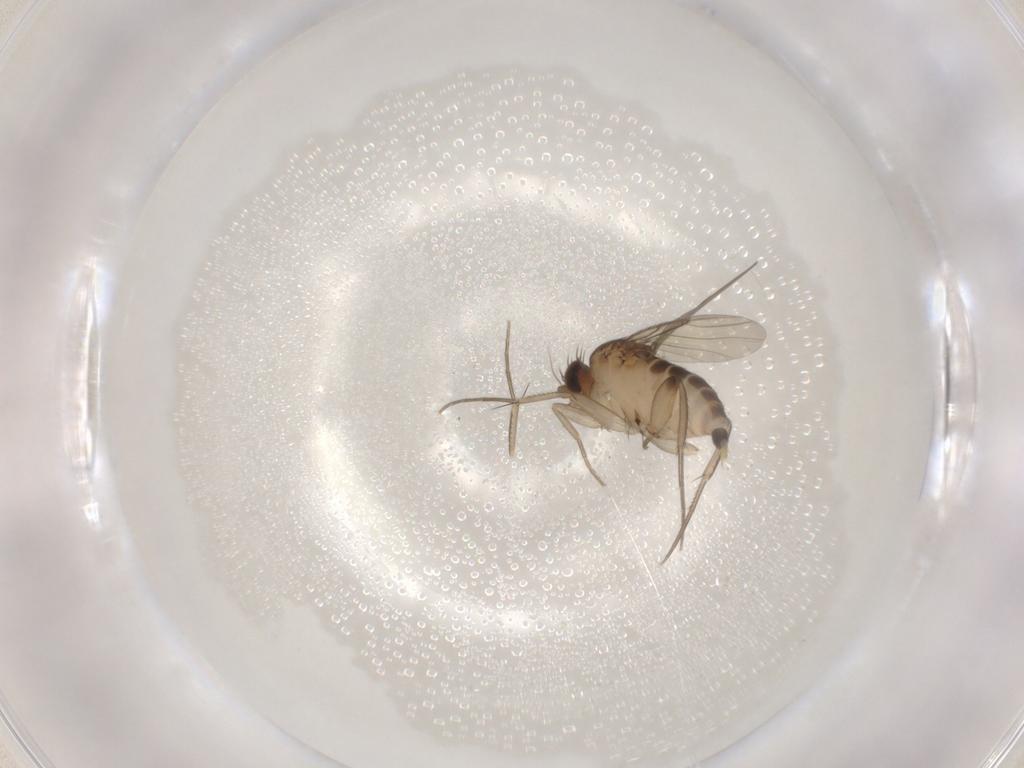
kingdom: Animalia
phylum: Arthropoda
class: Insecta
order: Diptera
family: Phoridae
